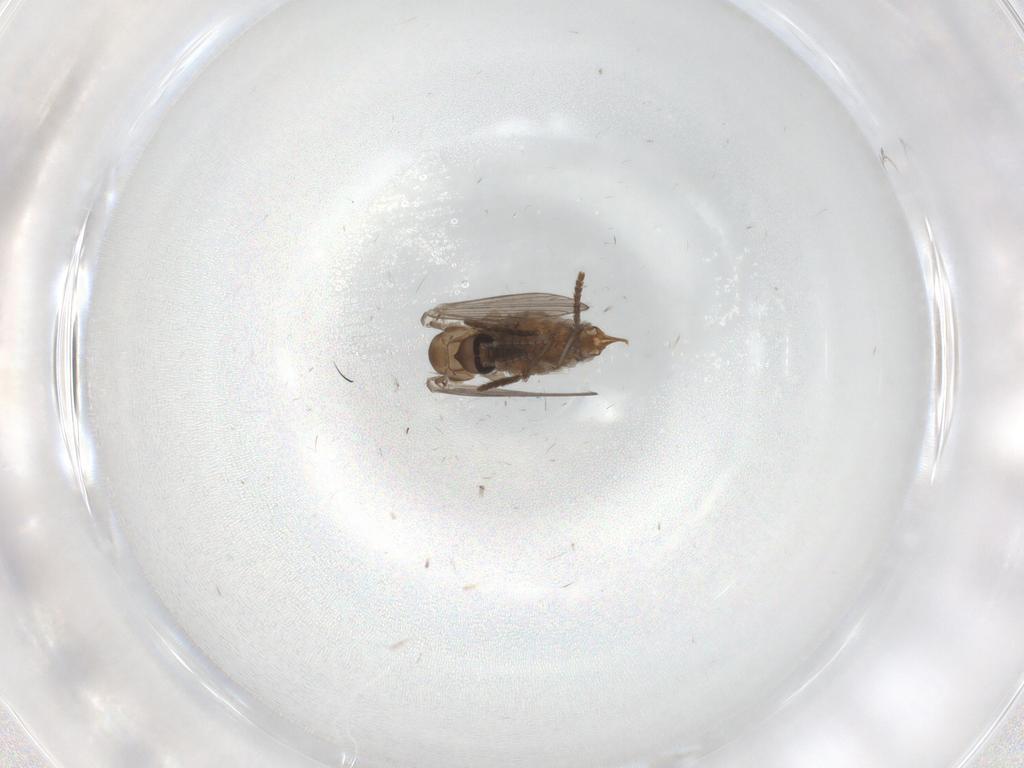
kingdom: Animalia
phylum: Arthropoda
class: Insecta
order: Diptera
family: Psychodidae
